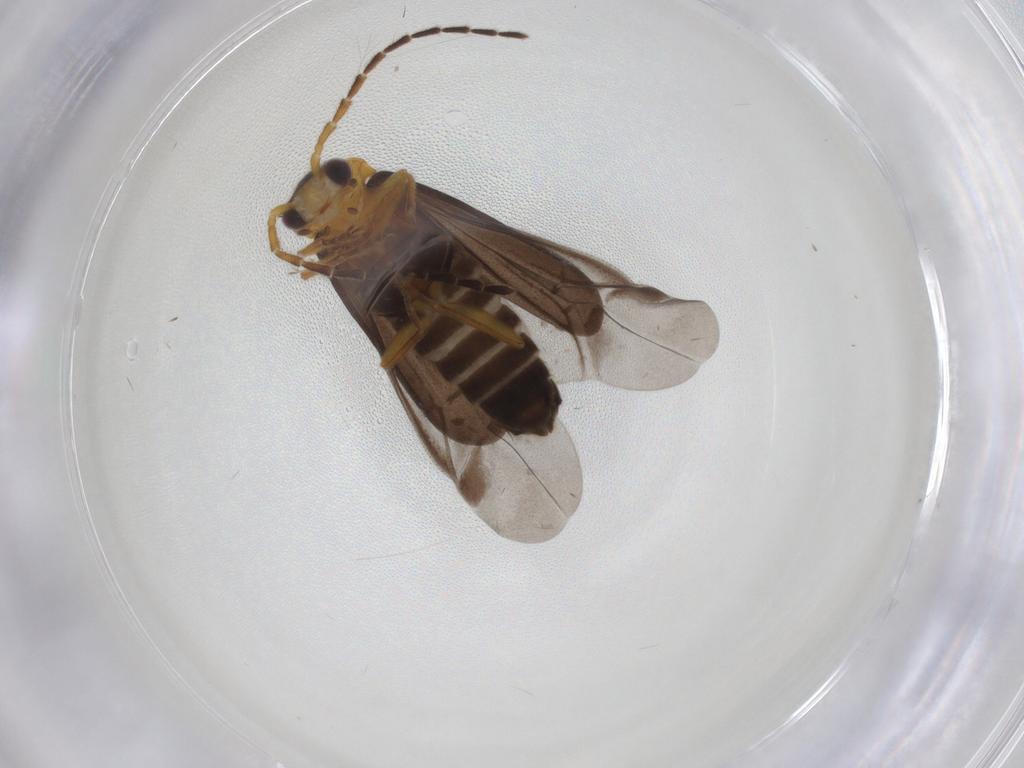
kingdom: Animalia
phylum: Arthropoda
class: Insecta
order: Coleoptera
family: Cantharidae
